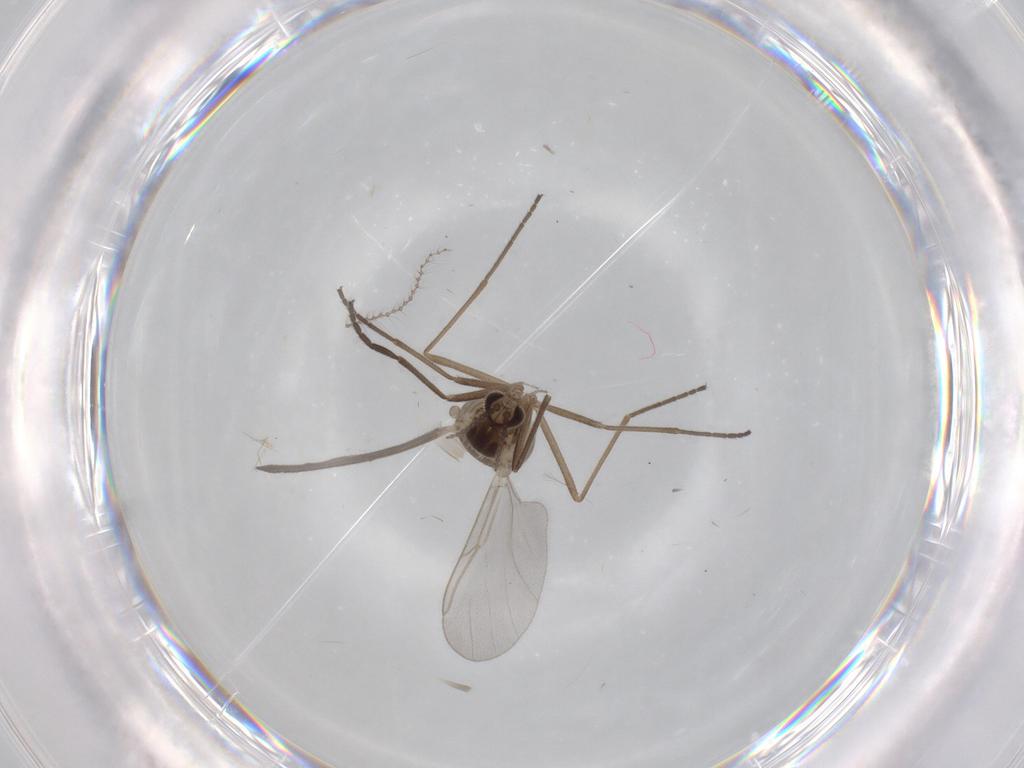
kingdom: Animalia
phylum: Arthropoda
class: Insecta
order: Diptera
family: Cecidomyiidae
